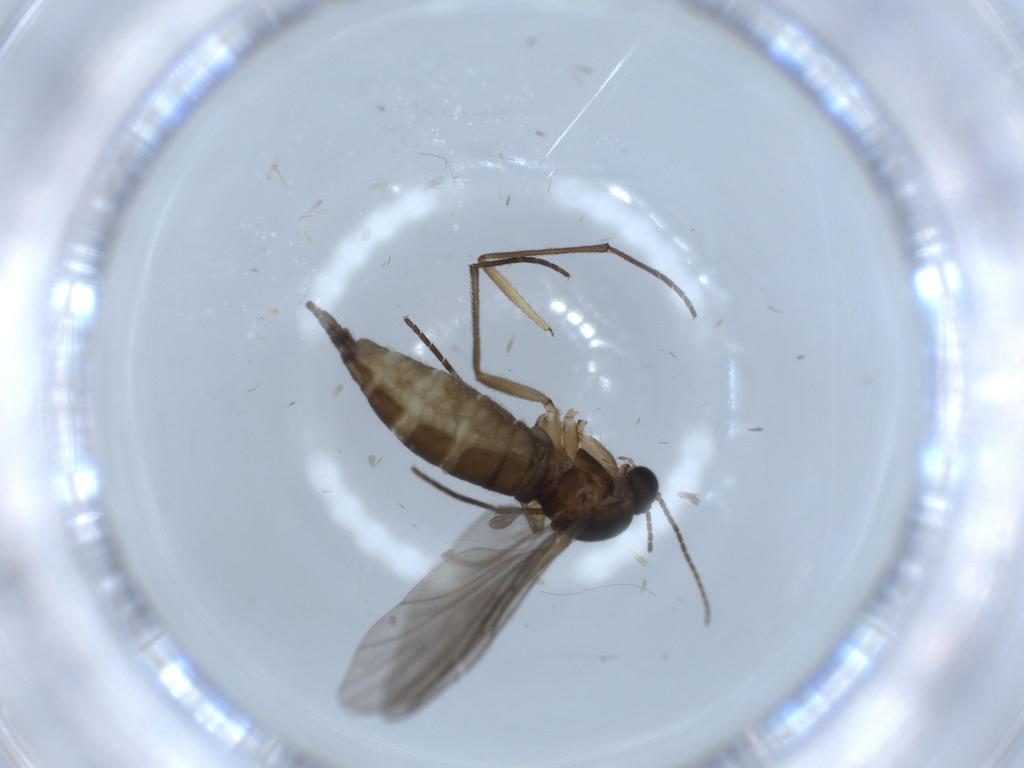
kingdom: Animalia
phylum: Arthropoda
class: Insecta
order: Diptera
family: Sciaridae
